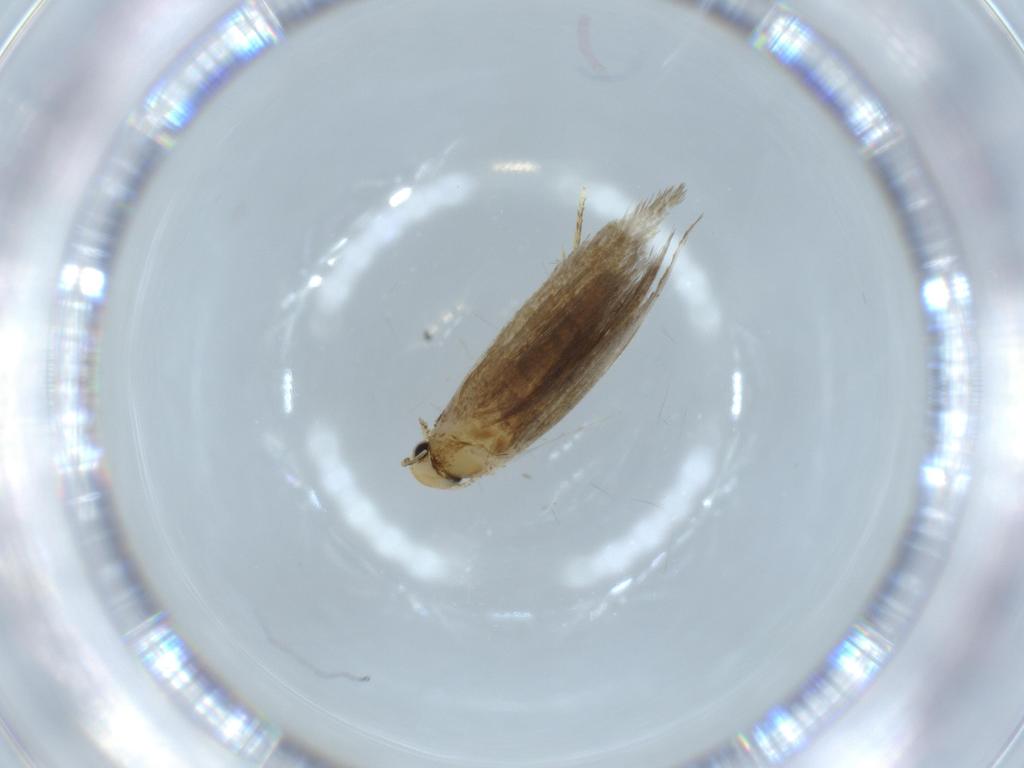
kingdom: Animalia
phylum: Arthropoda
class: Insecta
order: Lepidoptera
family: Tineidae
